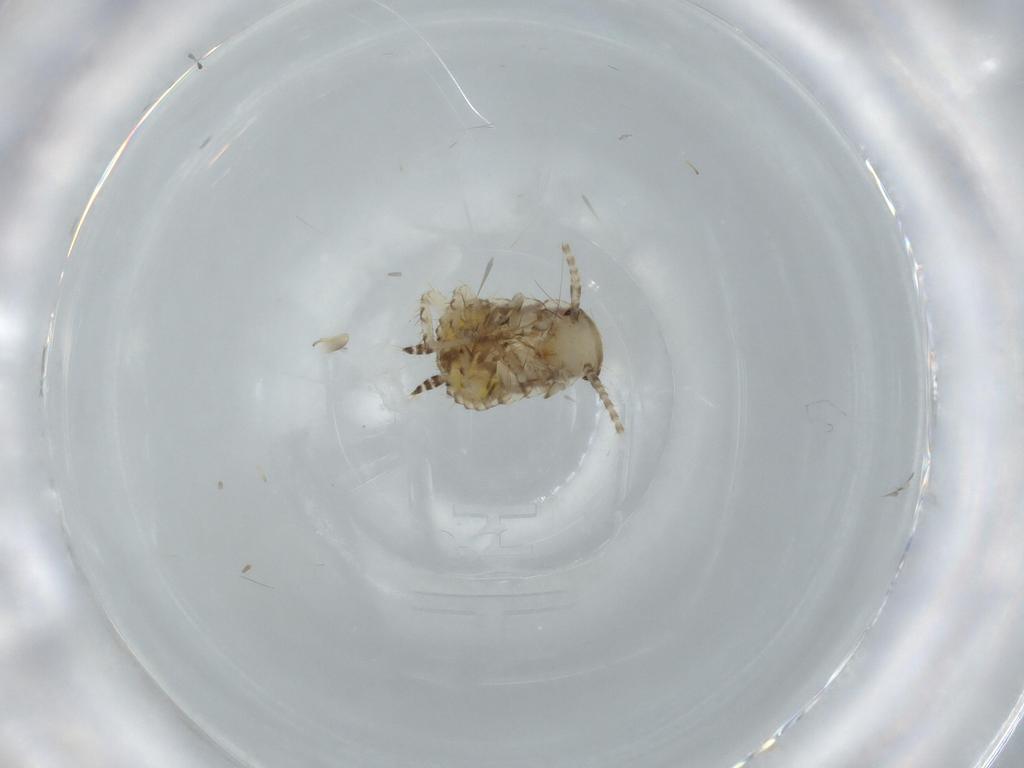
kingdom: Animalia
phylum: Arthropoda
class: Insecta
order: Blattodea
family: Ectobiidae
